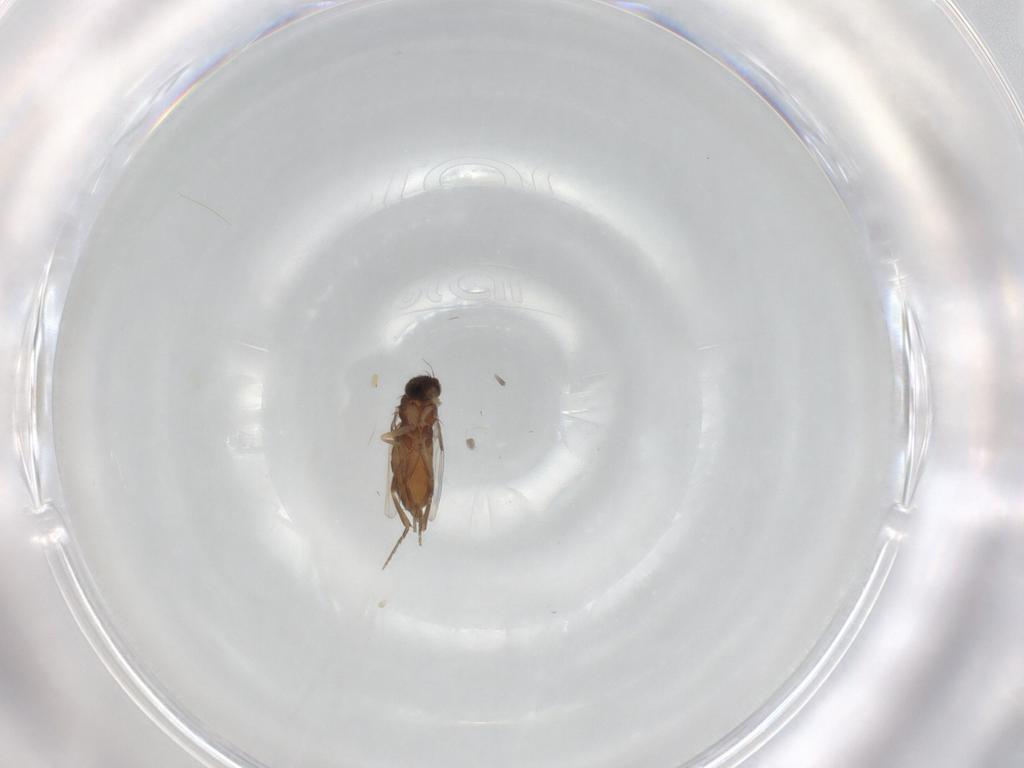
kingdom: Animalia
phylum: Arthropoda
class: Insecta
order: Diptera
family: Phoridae
